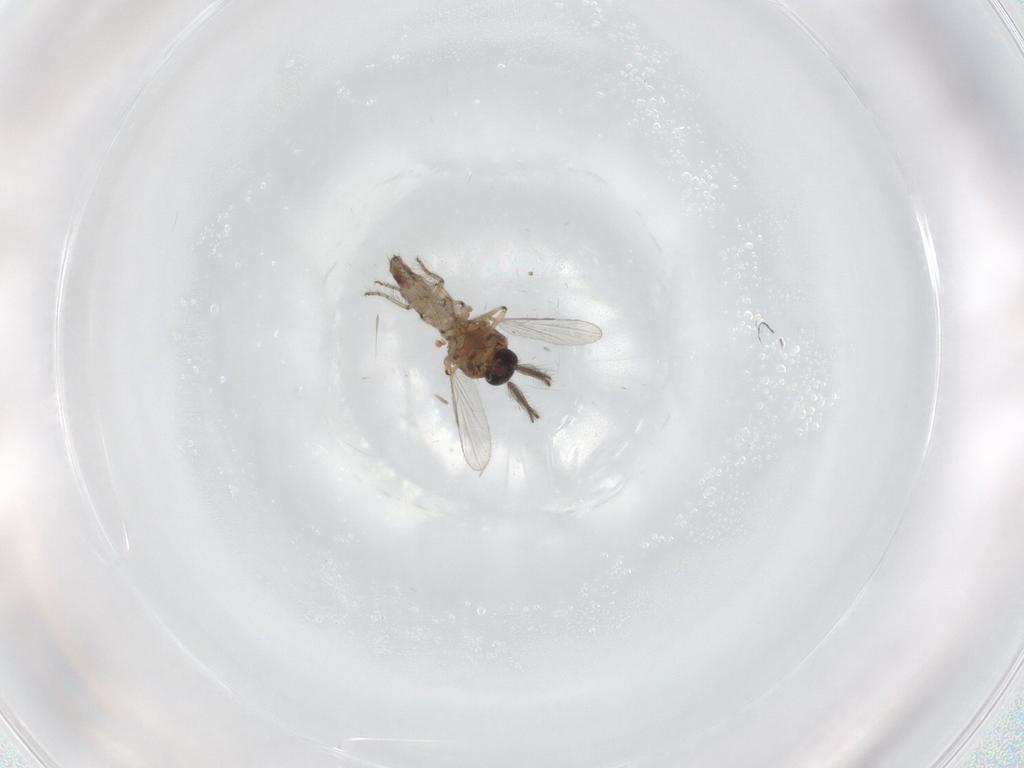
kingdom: Animalia
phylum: Arthropoda
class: Insecta
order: Diptera
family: Ceratopogonidae
